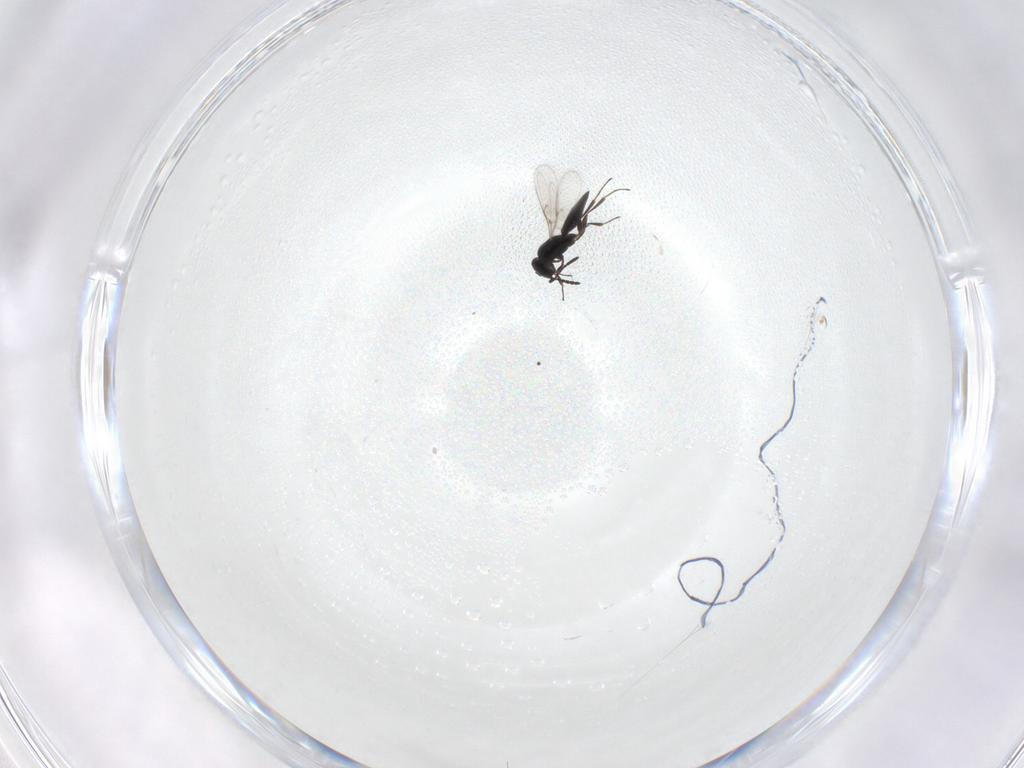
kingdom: Animalia
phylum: Arthropoda
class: Insecta
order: Hymenoptera
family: Scelionidae
